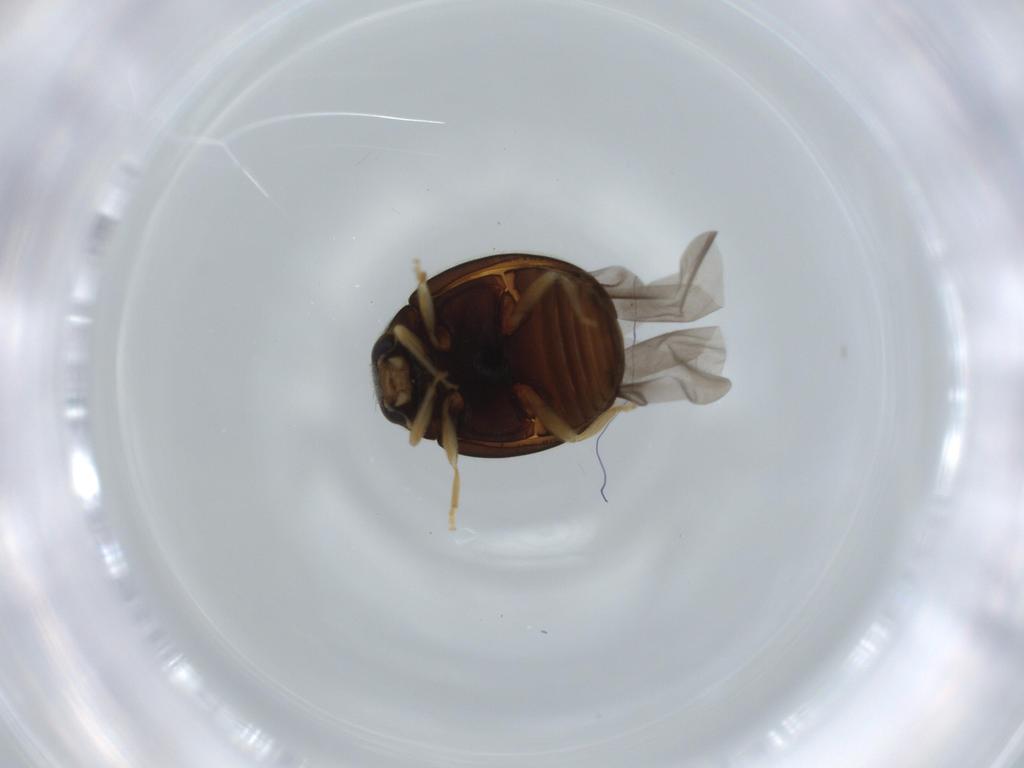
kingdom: Animalia
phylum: Arthropoda
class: Insecta
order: Coleoptera
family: Coccinellidae
